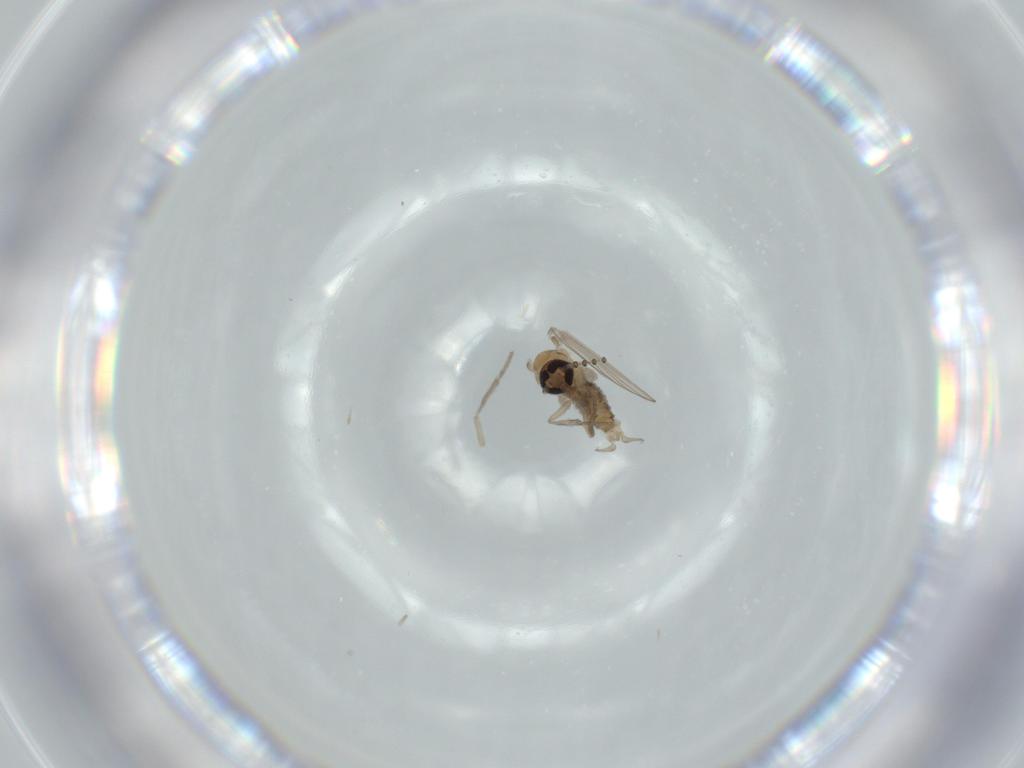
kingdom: Animalia
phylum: Arthropoda
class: Insecta
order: Diptera
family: Psychodidae
